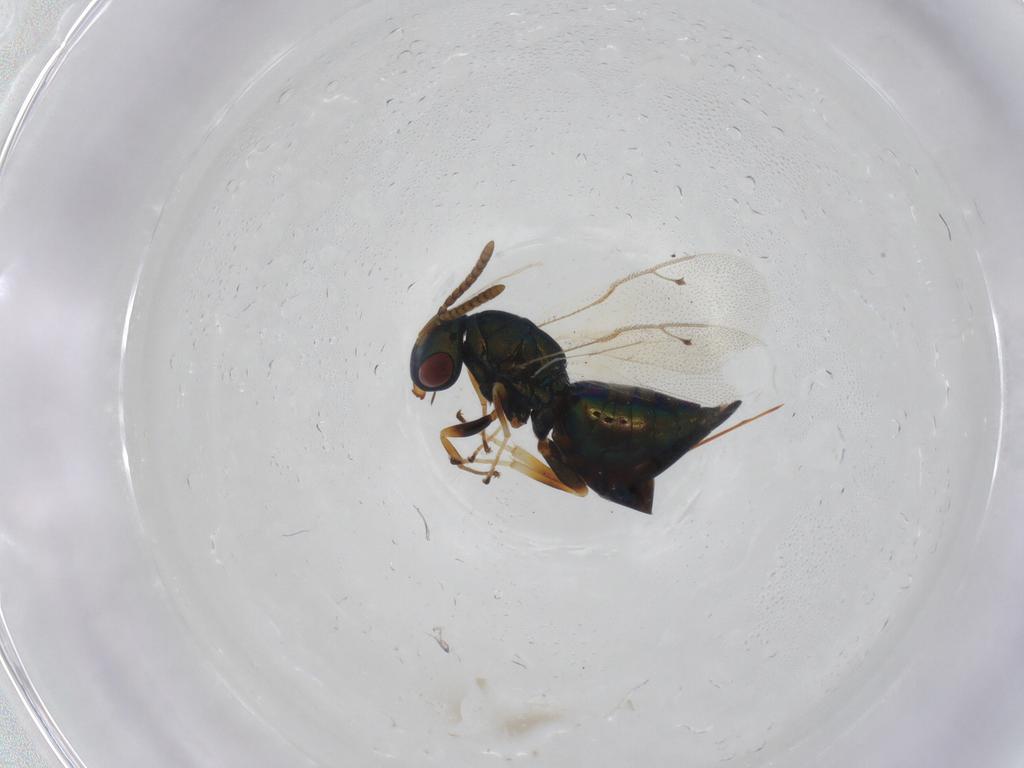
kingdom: Animalia
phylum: Arthropoda
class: Insecta
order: Hymenoptera
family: Pteromalidae
